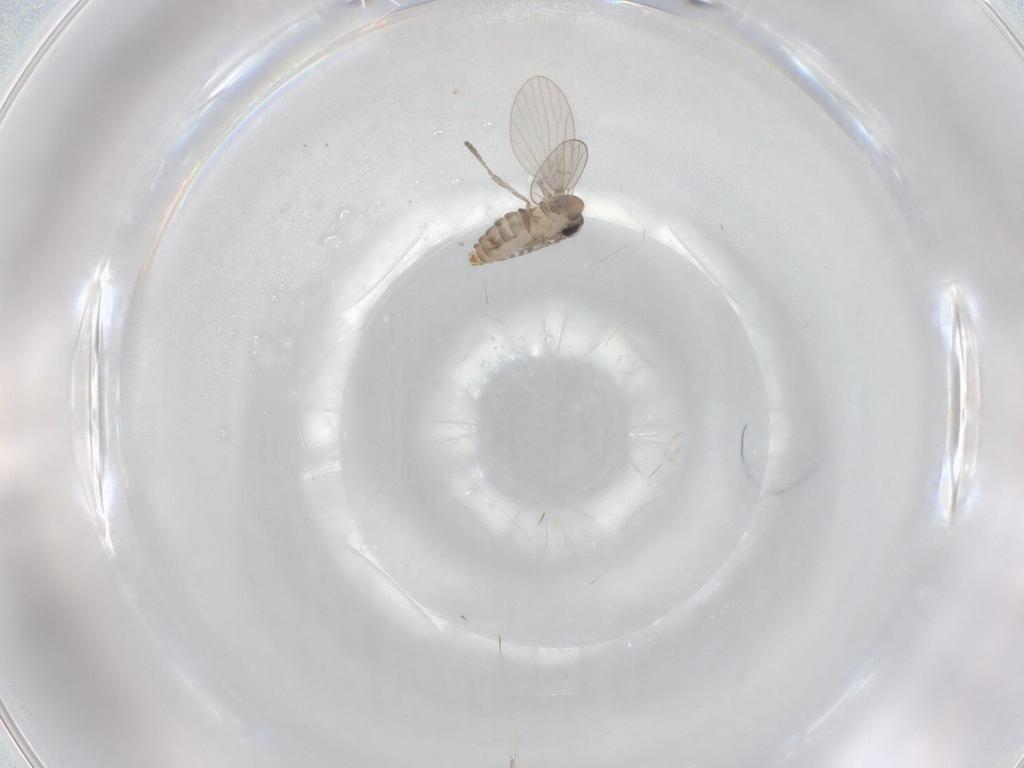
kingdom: Animalia
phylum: Arthropoda
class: Insecta
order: Diptera
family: Psychodidae
